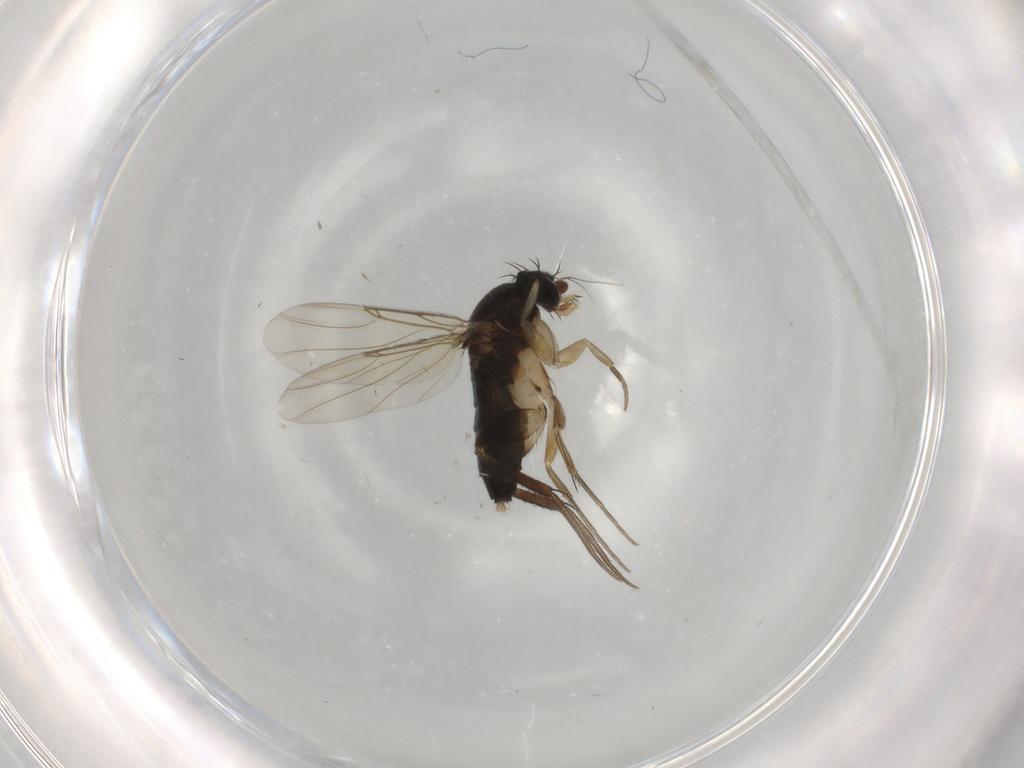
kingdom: Animalia
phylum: Arthropoda
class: Insecta
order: Diptera
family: Phoridae
